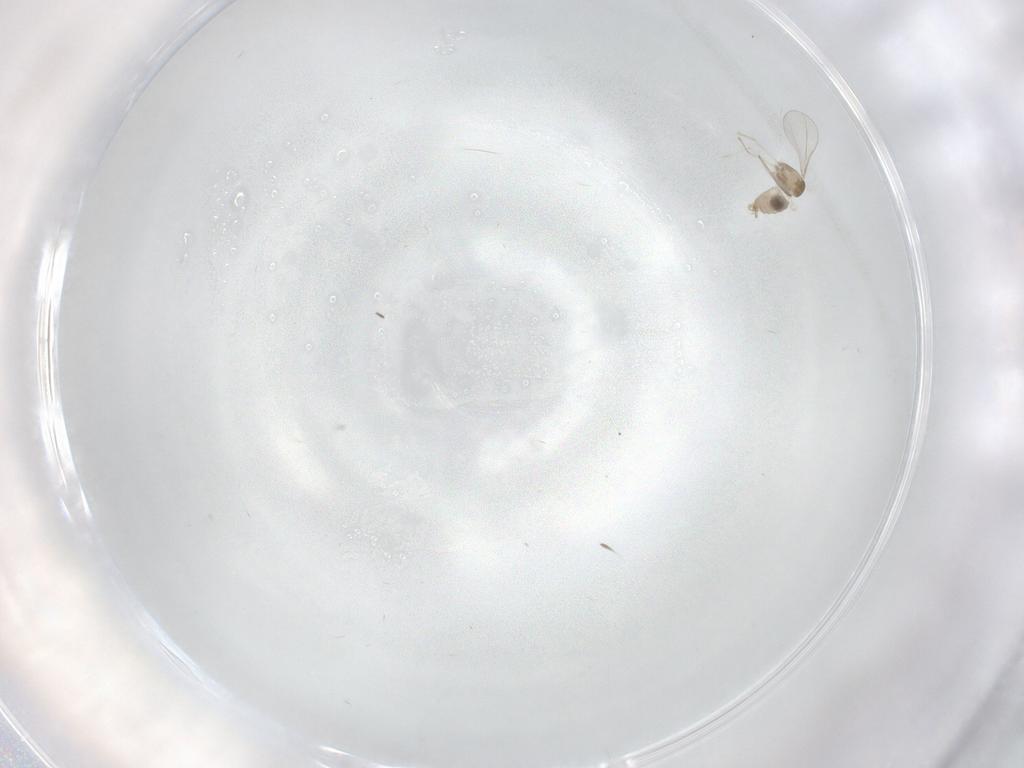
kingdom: Animalia
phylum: Arthropoda
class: Insecta
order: Diptera
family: Cecidomyiidae
